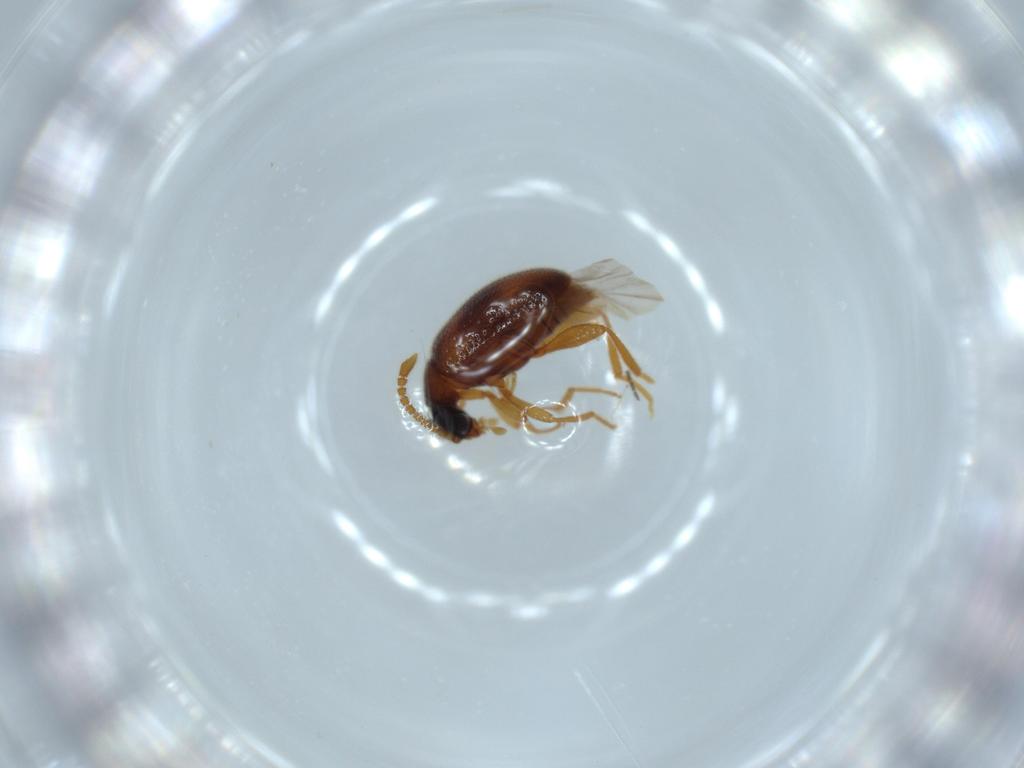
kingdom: Animalia
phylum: Arthropoda
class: Insecta
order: Coleoptera
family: Aderidae
